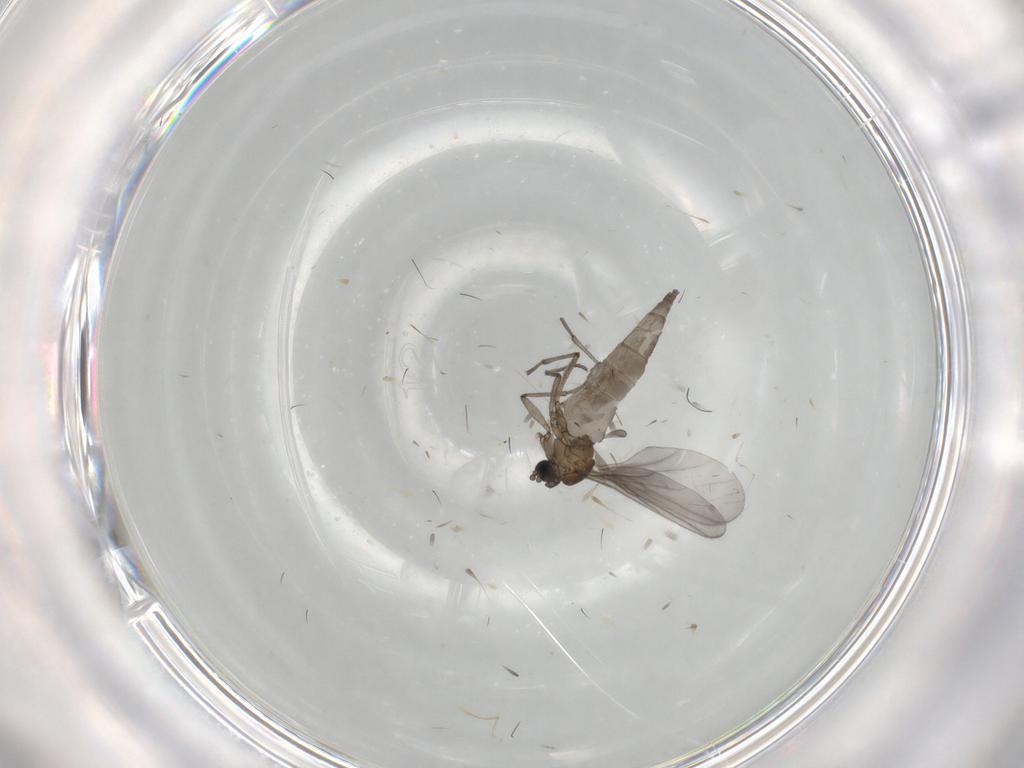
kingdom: Animalia
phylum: Arthropoda
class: Insecta
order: Diptera
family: Sciaridae
